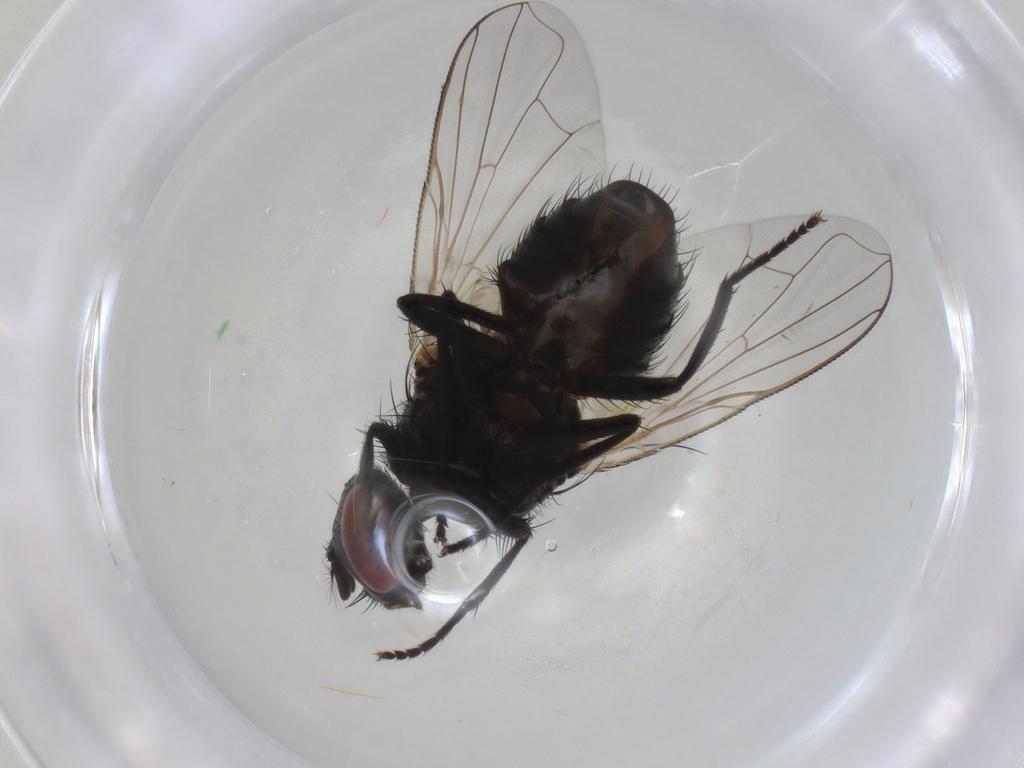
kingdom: Animalia
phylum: Arthropoda
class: Insecta
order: Diptera
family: Muscidae
